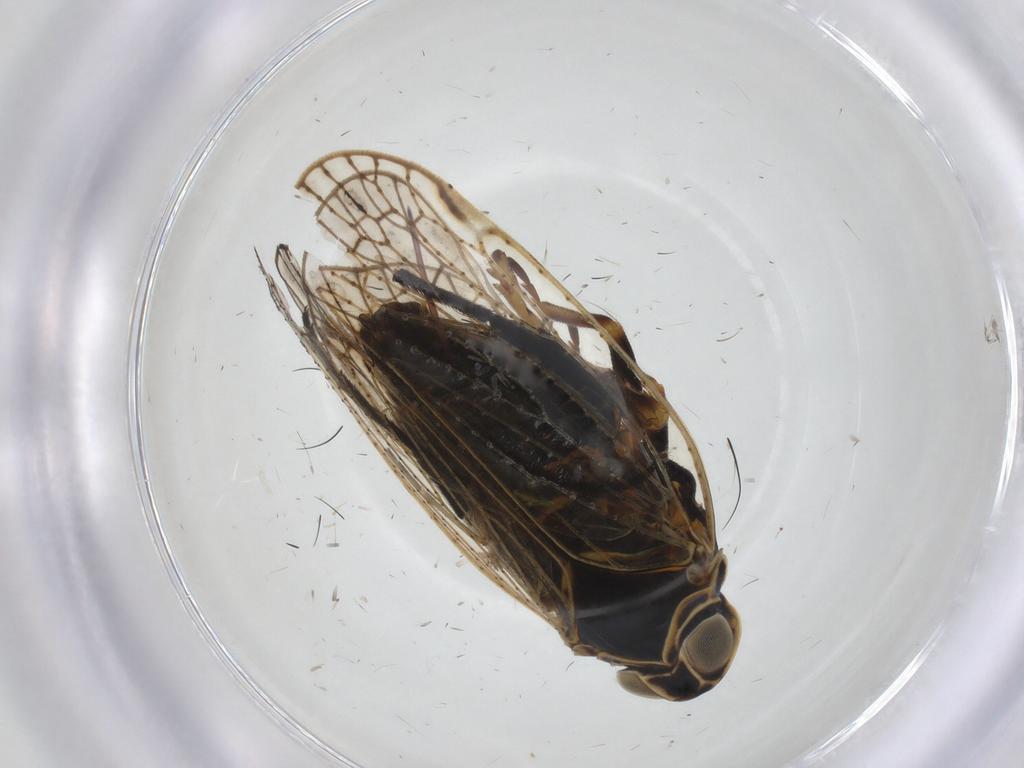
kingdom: Animalia
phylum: Arthropoda
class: Insecta
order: Hemiptera
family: Cixiidae
